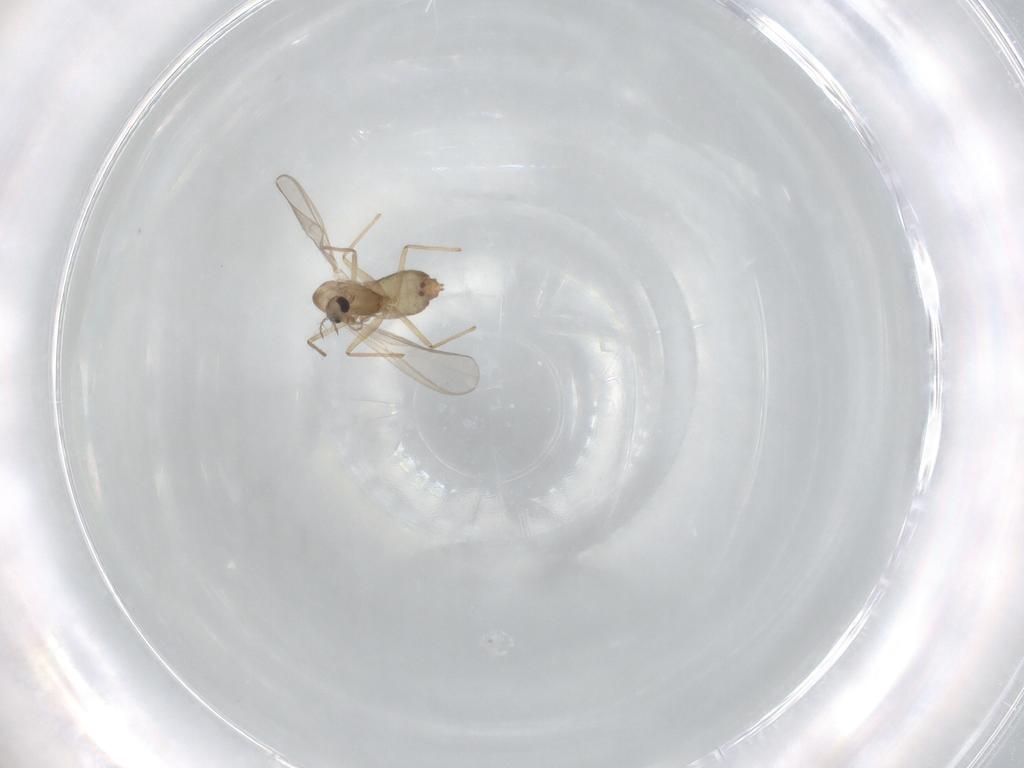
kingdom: Animalia
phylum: Arthropoda
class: Insecta
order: Diptera
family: Chironomidae
